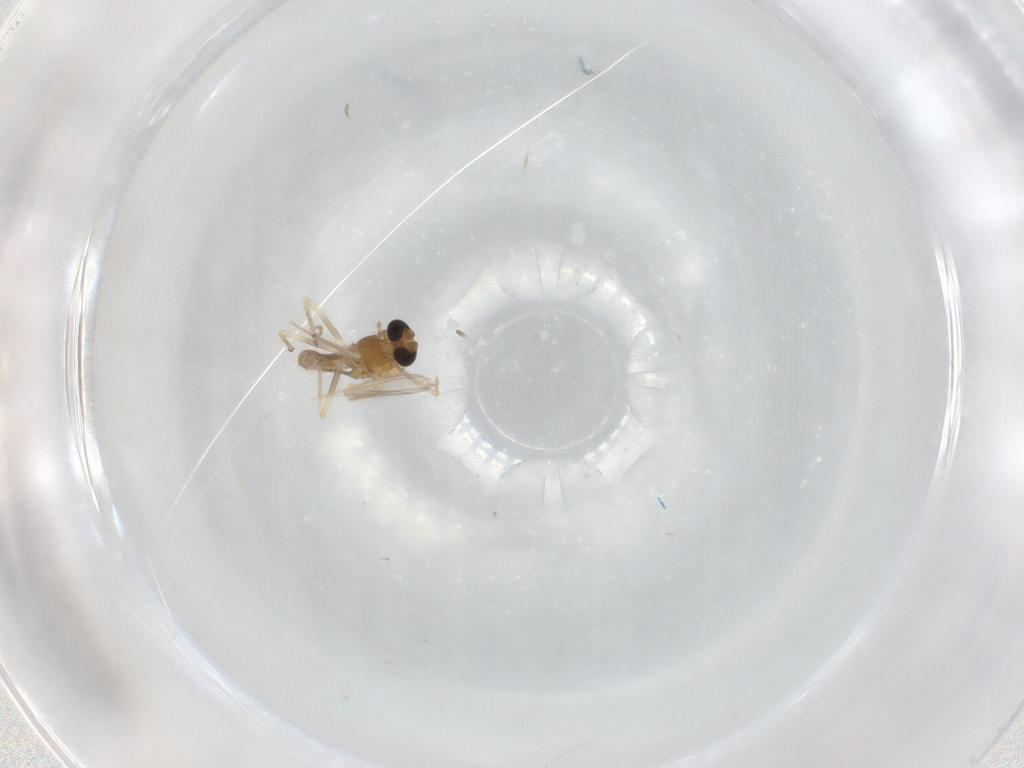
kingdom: Animalia
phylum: Arthropoda
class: Insecta
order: Diptera
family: Chironomidae
